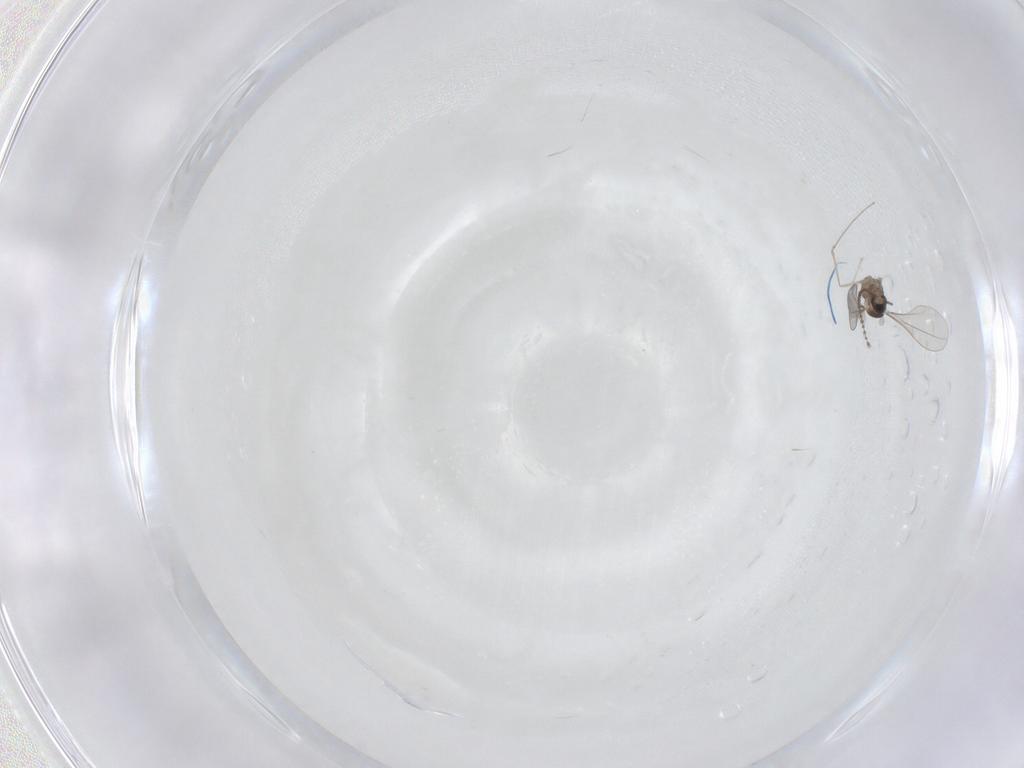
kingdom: Animalia
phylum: Arthropoda
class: Insecta
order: Diptera
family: Cecidomyiidae
